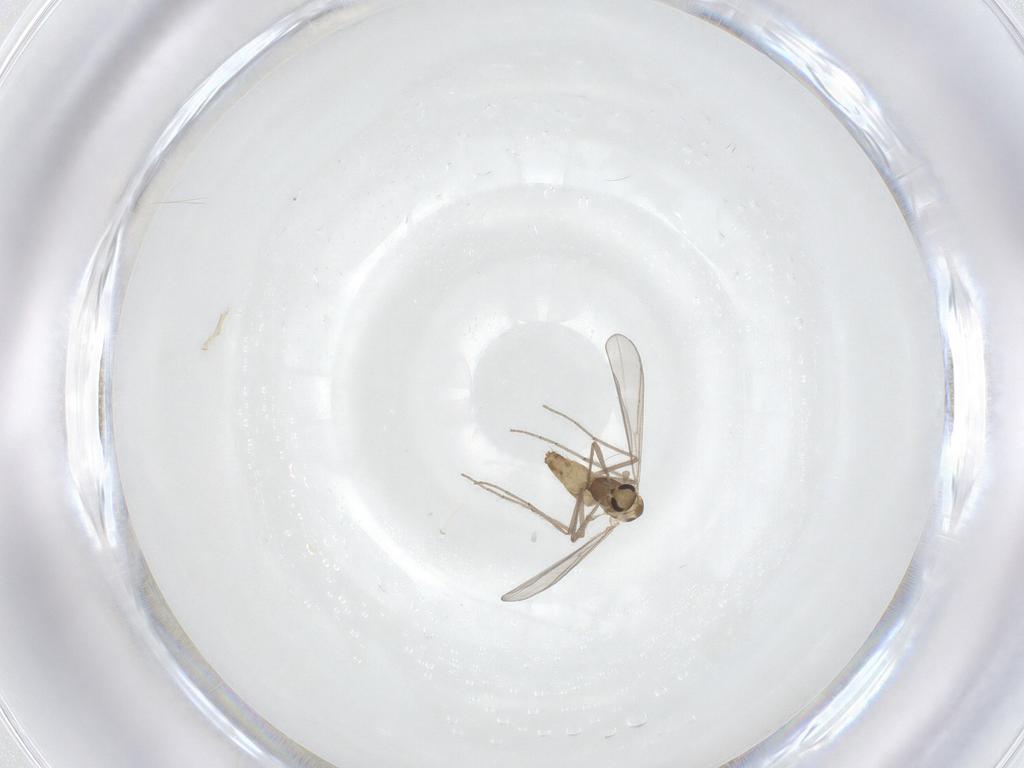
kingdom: Animalia
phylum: Arthropoda
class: Insecta
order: Diptera
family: Chironomidae
